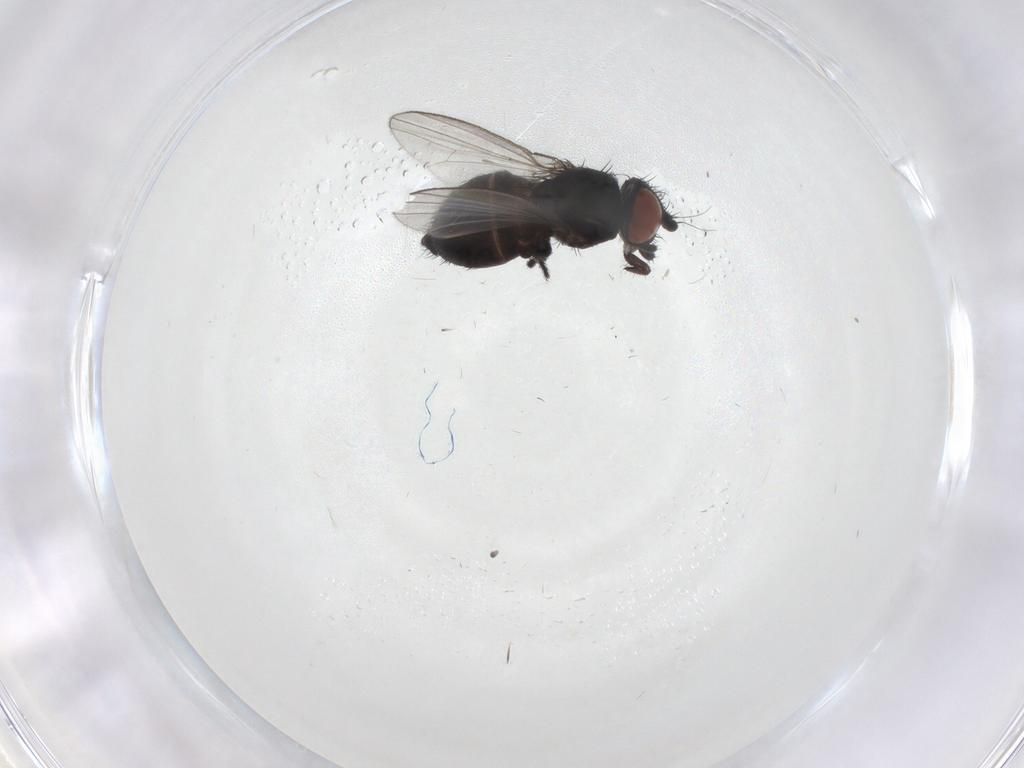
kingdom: Animalia
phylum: Arthropoda
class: Insecta
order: Diptera
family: Milichiidae
